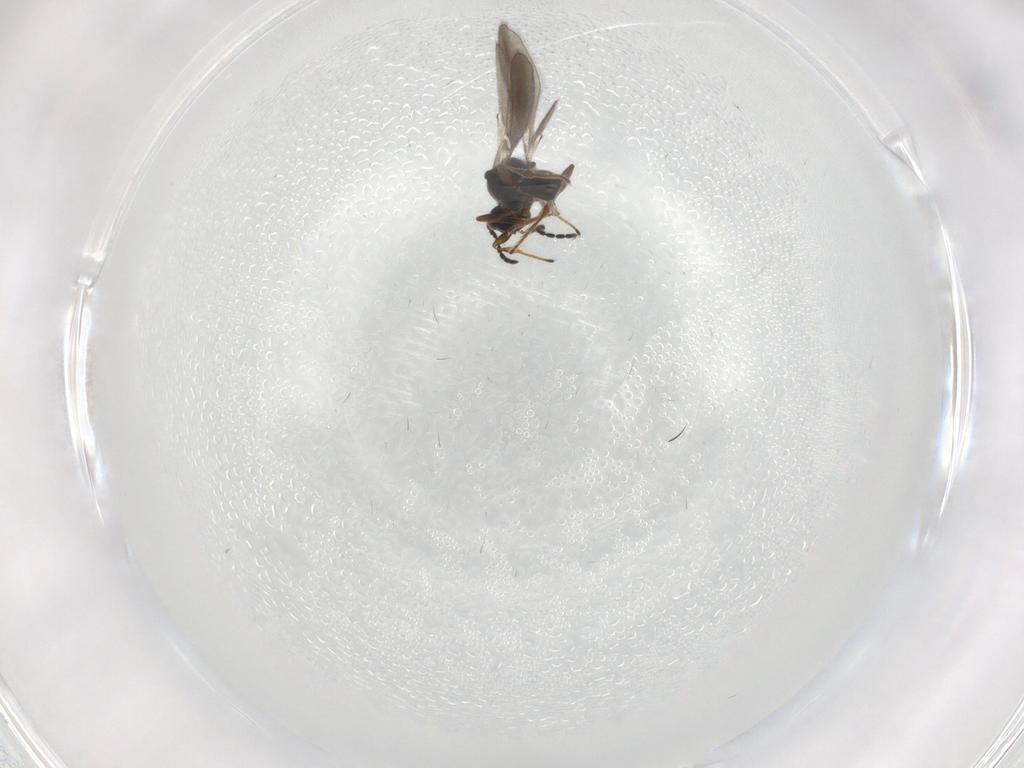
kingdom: Animalia
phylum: Arthropoda
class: Insecta
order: Hymenoptera
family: Platygastridae
